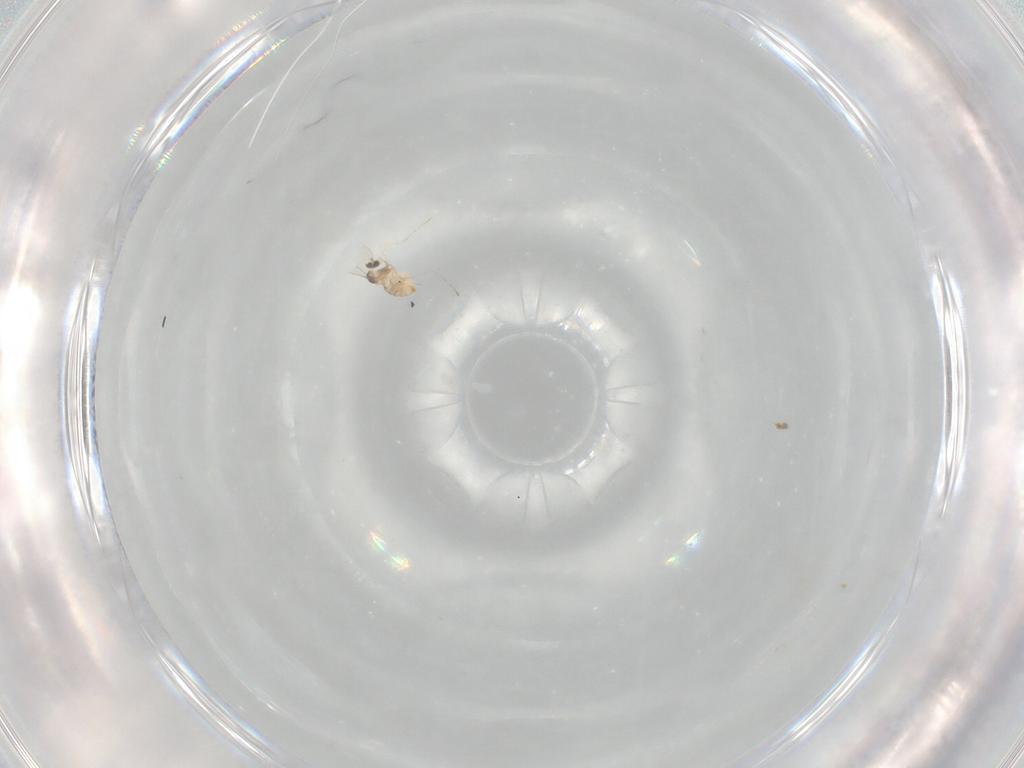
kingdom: Animalia
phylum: Arthropoda
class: Insecta
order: Diptera
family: Cecidomyiidae
